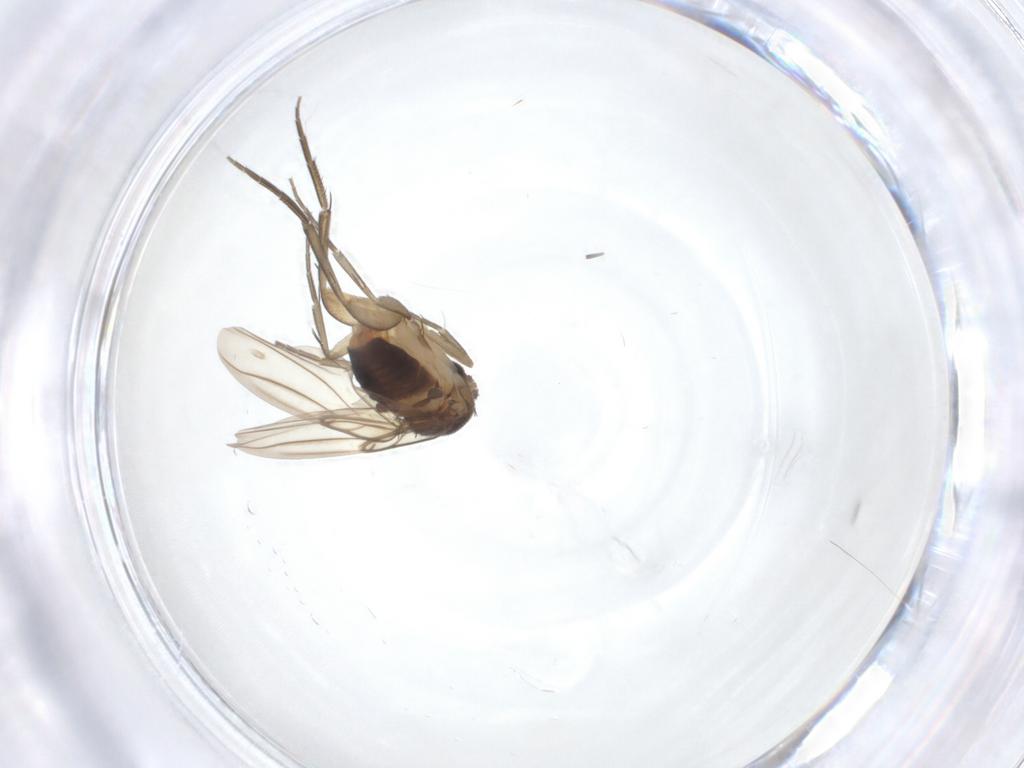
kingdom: Animalia
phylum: Arthropoda
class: Insecta
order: Diptera
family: Phoridae
